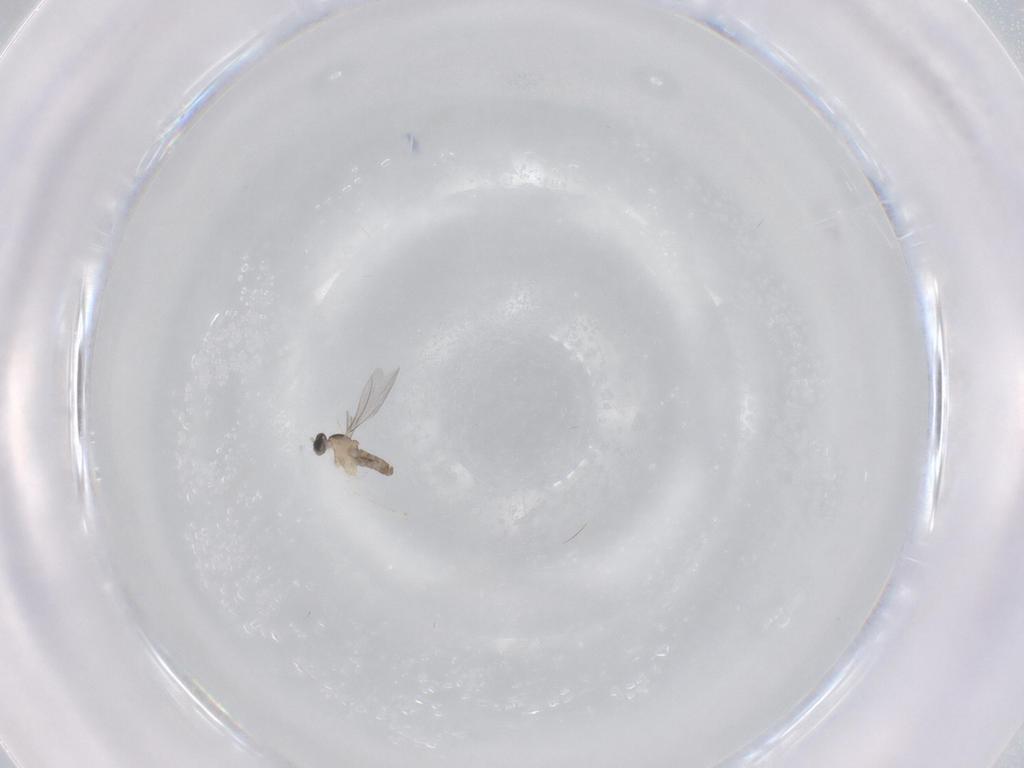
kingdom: Animalia
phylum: Arthropoda
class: Insecta
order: Diptera
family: Cecidomyiidae
